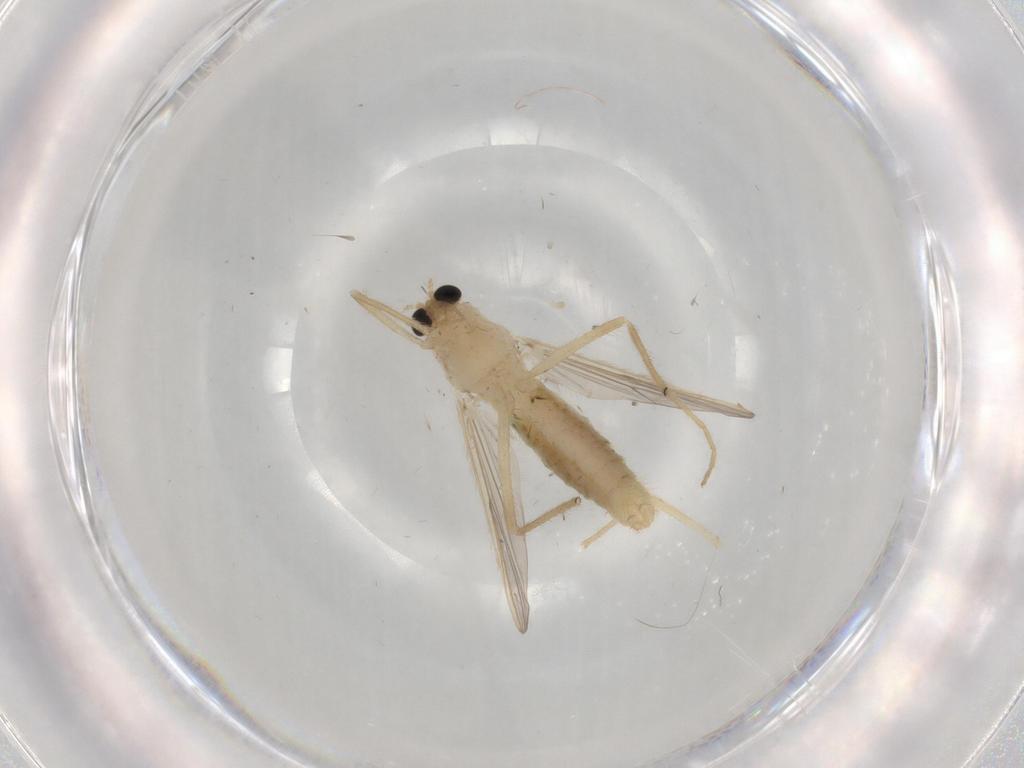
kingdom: Animalia
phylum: Arthropoda
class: Insecta
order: Diptera
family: Chironomidae
